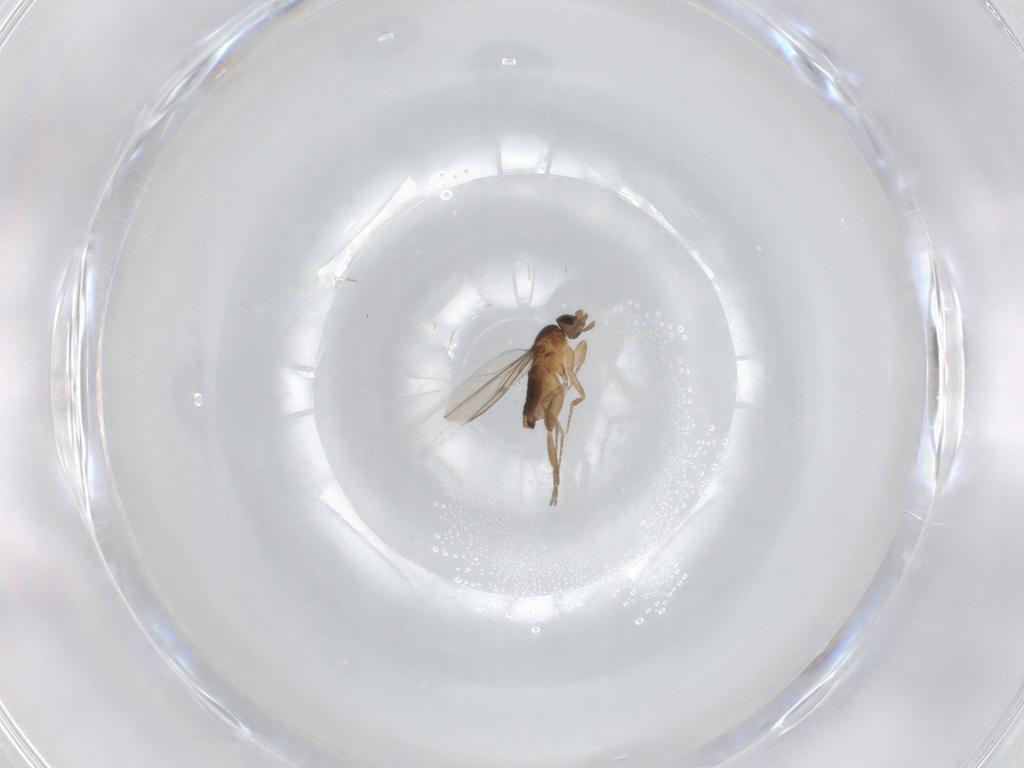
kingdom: Animalia
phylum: Arthropoda
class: Insecta
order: Diptera
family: Phoridae
